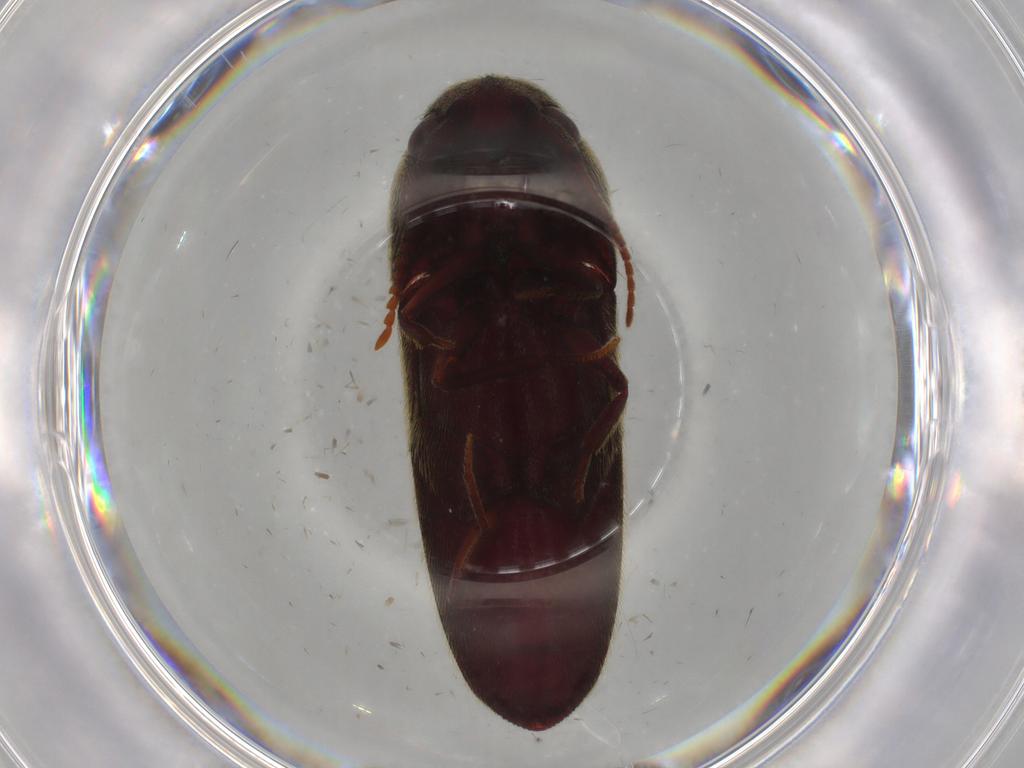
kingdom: Animalia
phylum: Arthropoda
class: Insecta
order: Coleoptera
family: Eucnemidae
